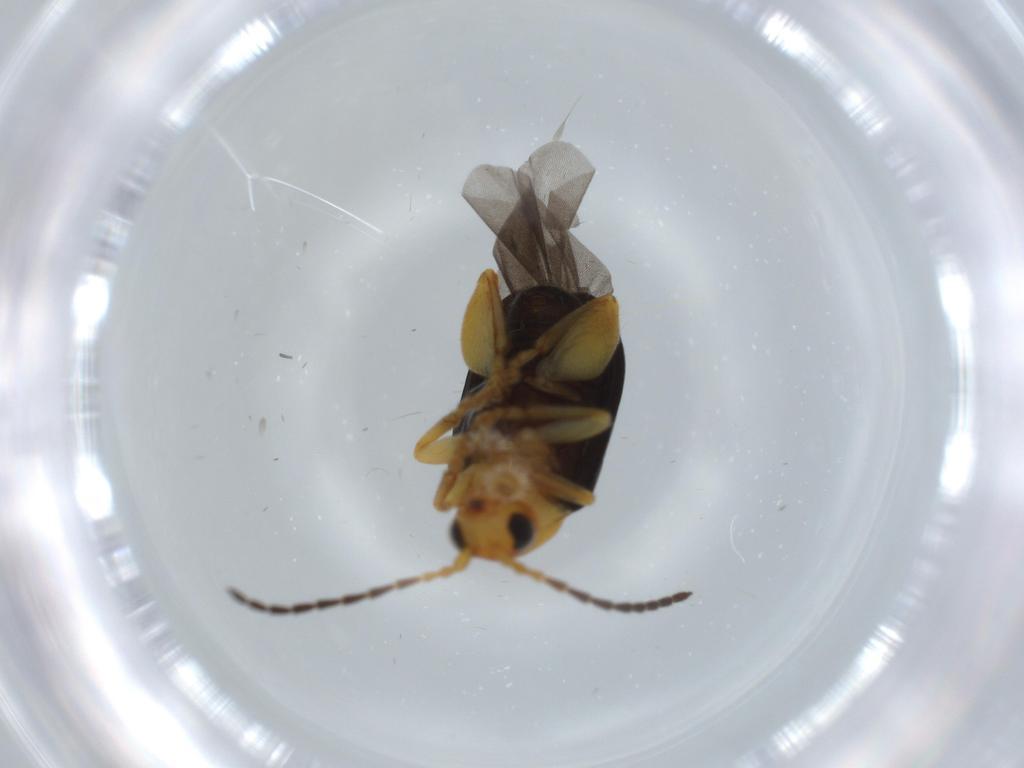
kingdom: Animalia
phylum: Arthropoda
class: Insecta
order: Coleoptera
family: Chrysomelidae
